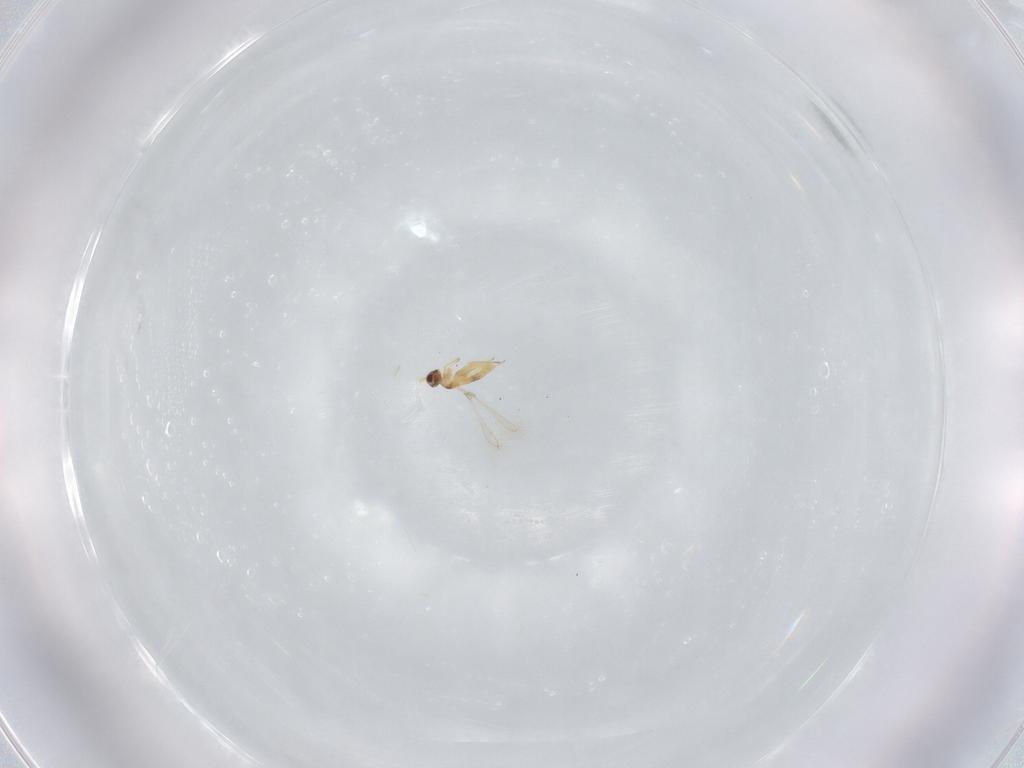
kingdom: Animalia
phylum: Arthropoda
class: Insecta
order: Hymenoptera
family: Mymaridae
